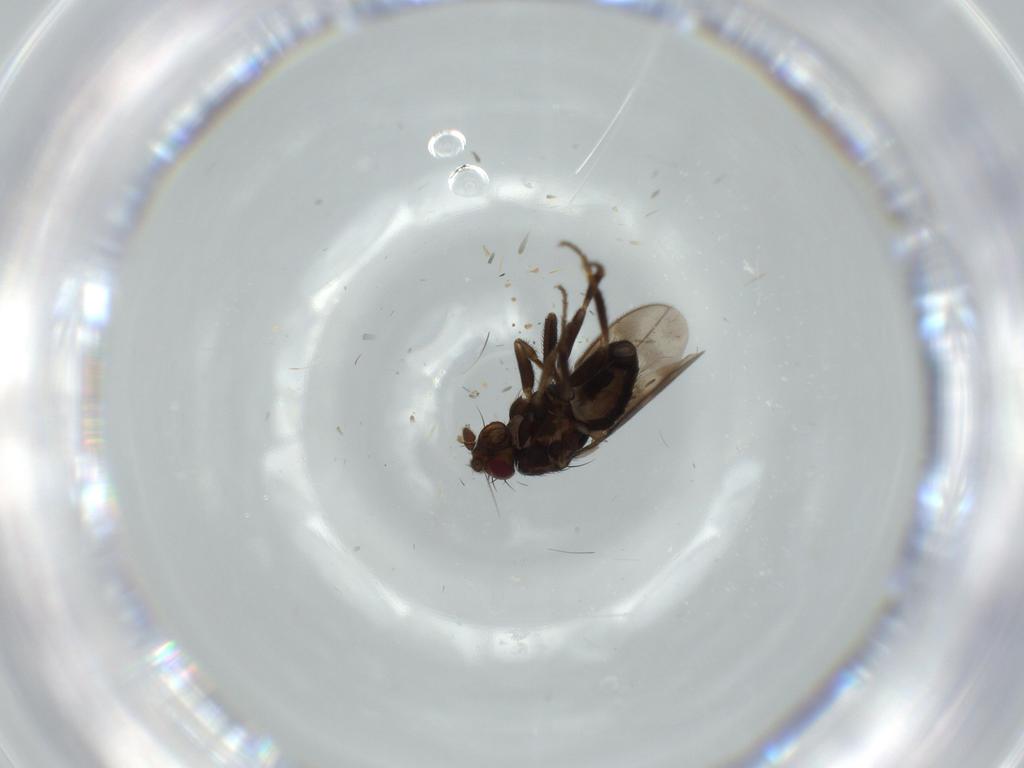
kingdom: Animalia
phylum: Arthropoda
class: Insecta
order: Diptera
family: Sphaeroceridae
